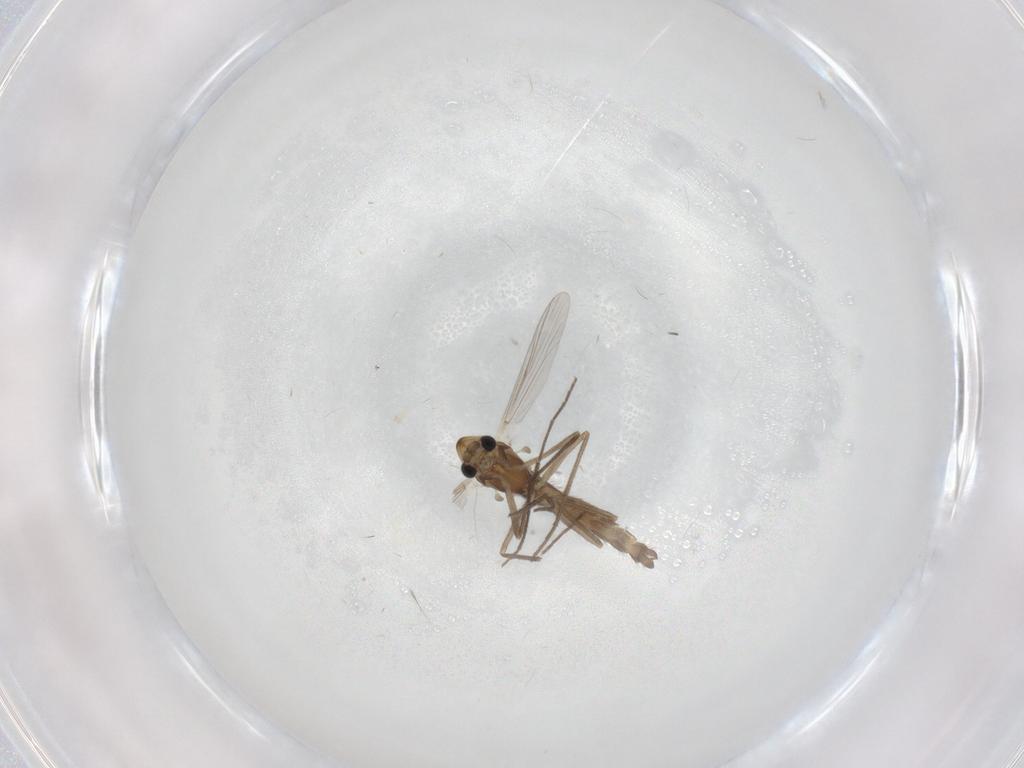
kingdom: Animalia
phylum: Arthropoda
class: Insecta
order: Diptera
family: Chironomidae
